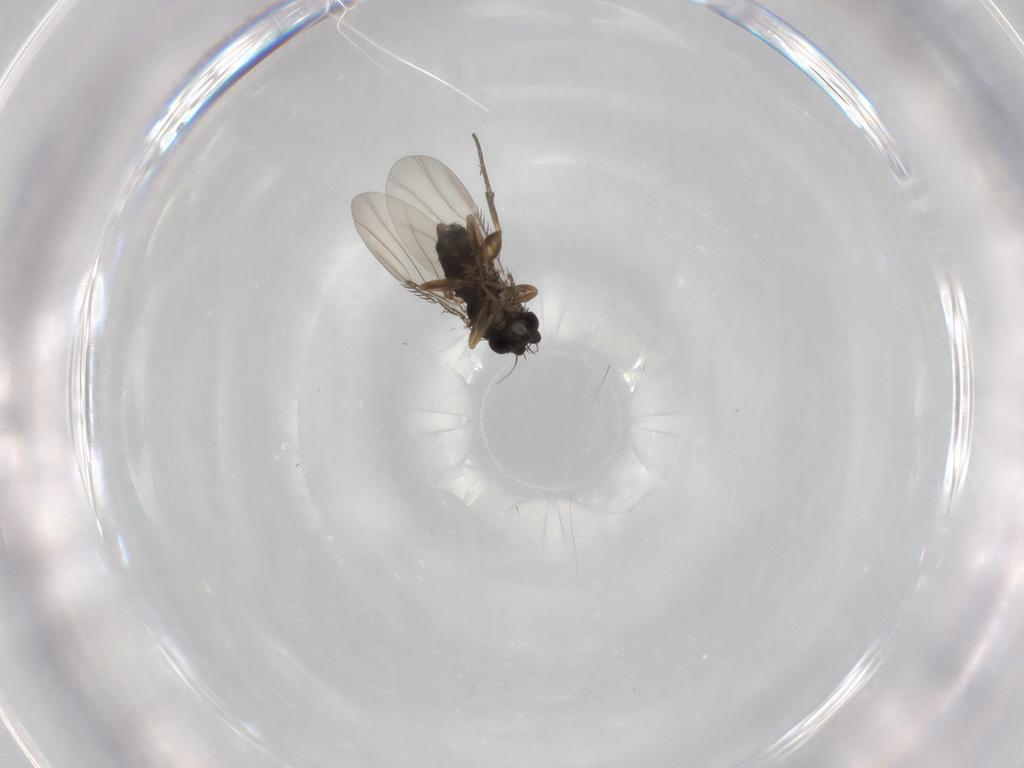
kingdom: Animalia
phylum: Arthropoda
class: Insecta
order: Diptera
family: Phoridae
